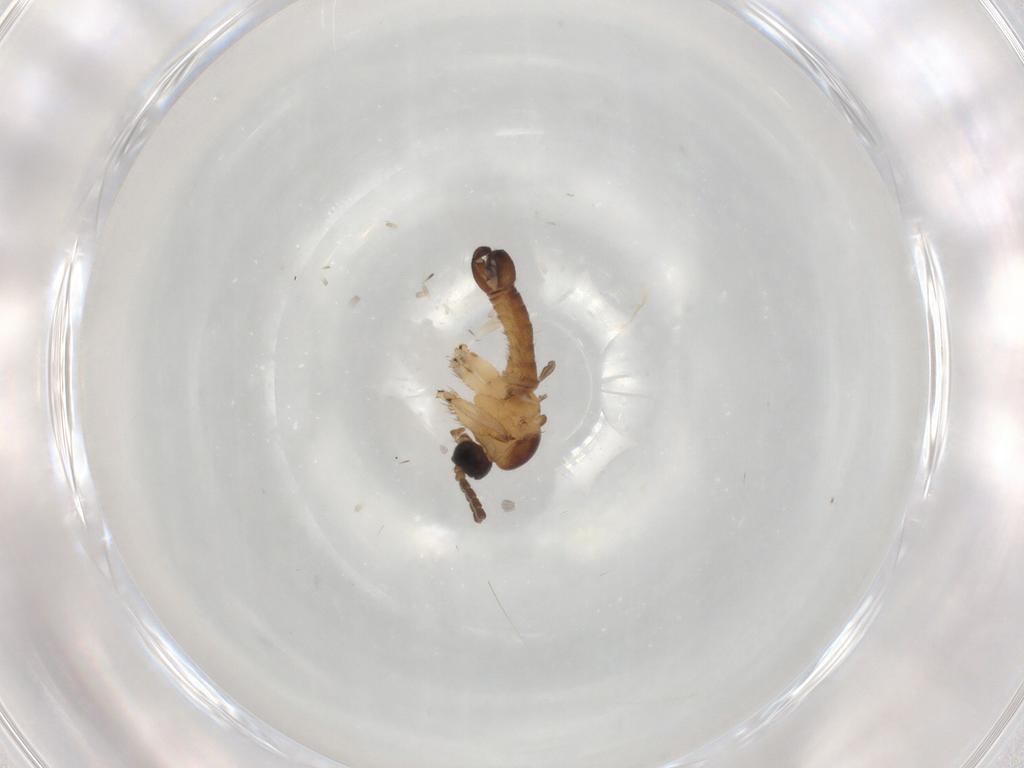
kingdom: Animalia
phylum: Arthropoda
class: Insecta
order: Diptera
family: Sciaridae
